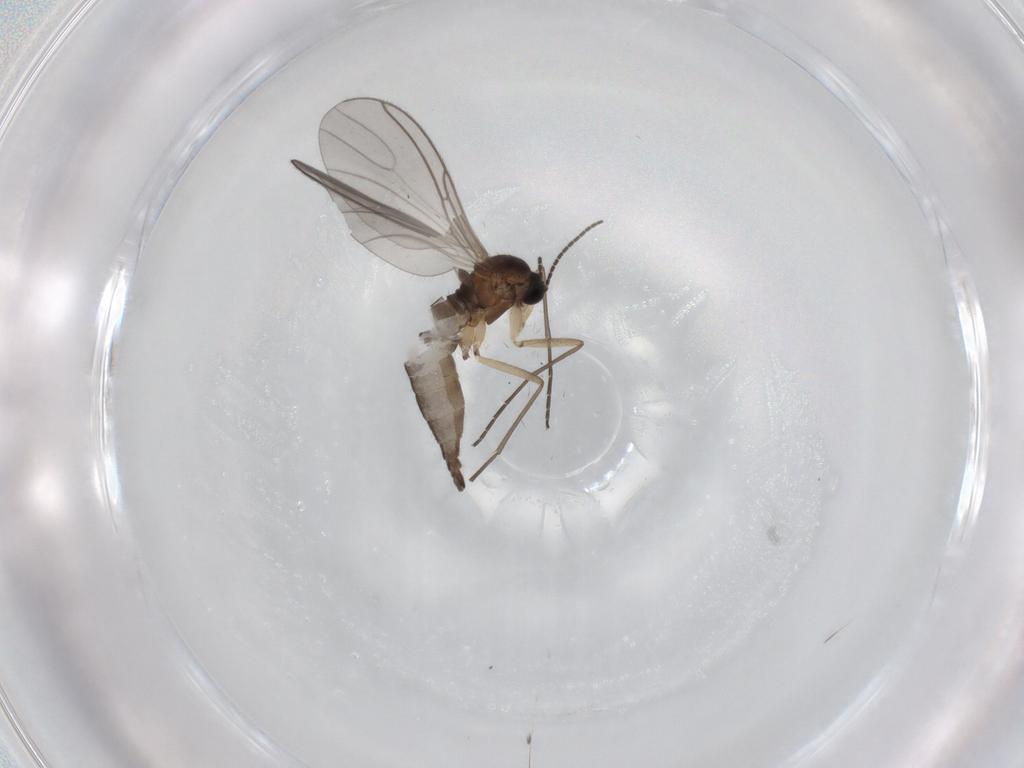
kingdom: Animalia
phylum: Arthropoda
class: Insecta
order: Diptera
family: Sciaridae
